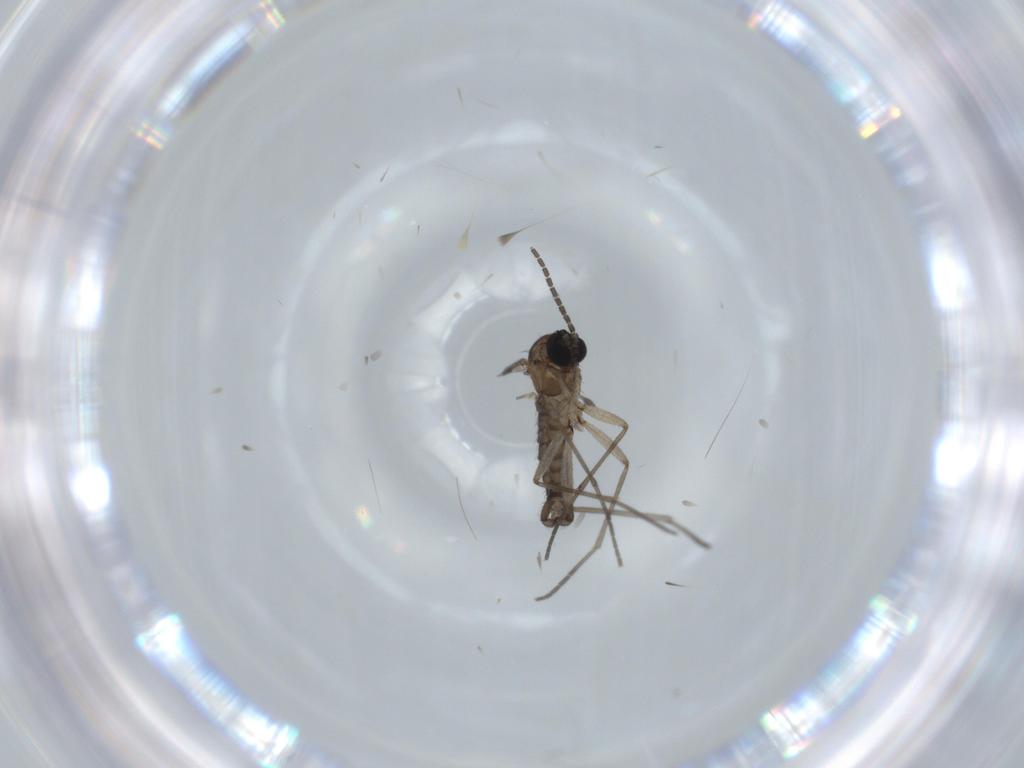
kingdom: Animalia
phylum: Arthropoda
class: Insecta
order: Diptera
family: Sciaridae
